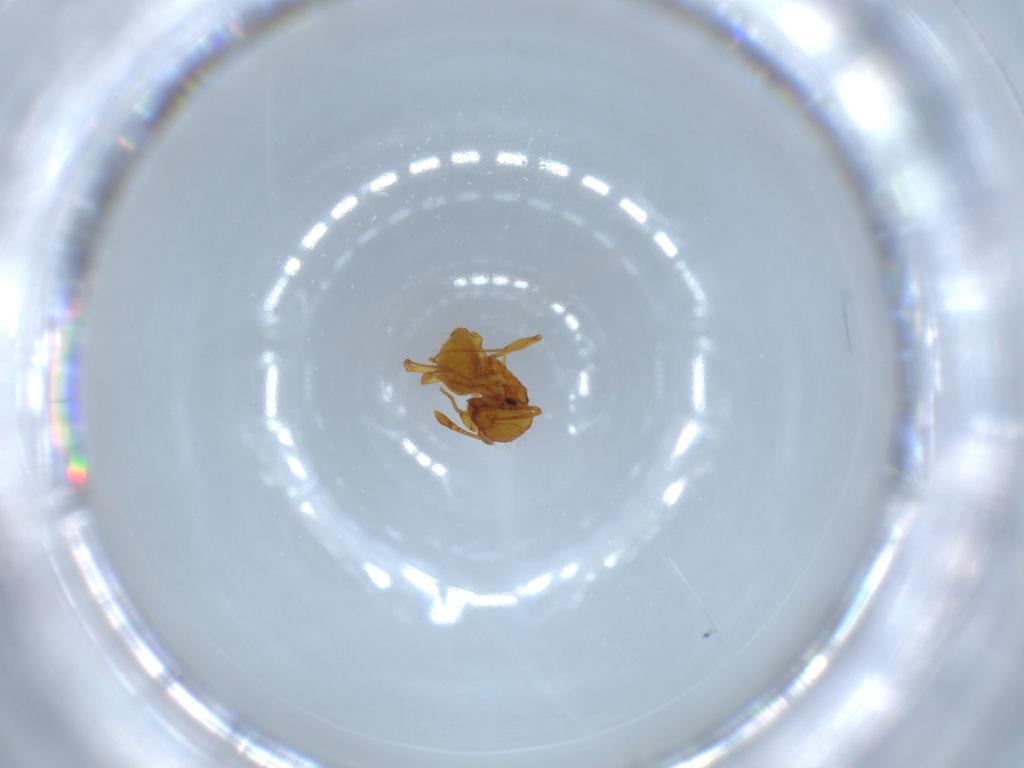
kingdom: Animalia
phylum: Arthropoda
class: Insecta
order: Hymenoptera
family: Formicidae
